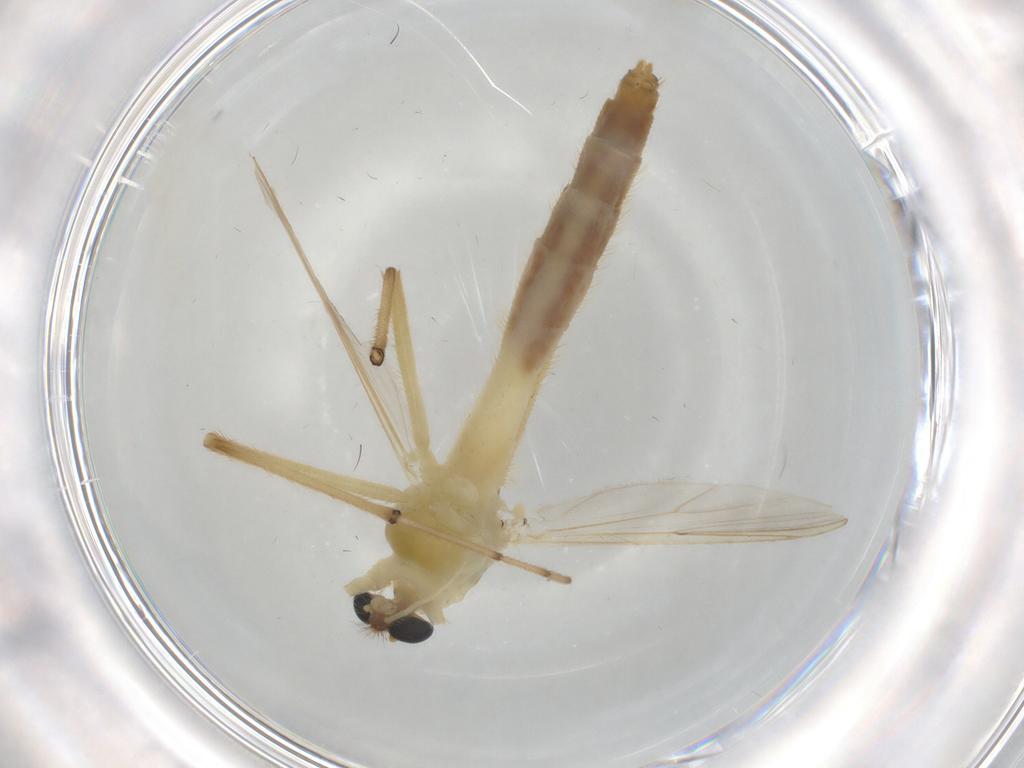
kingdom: Animalia
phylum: Arthropoda
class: Insecta
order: Diptera
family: Chironomidae
